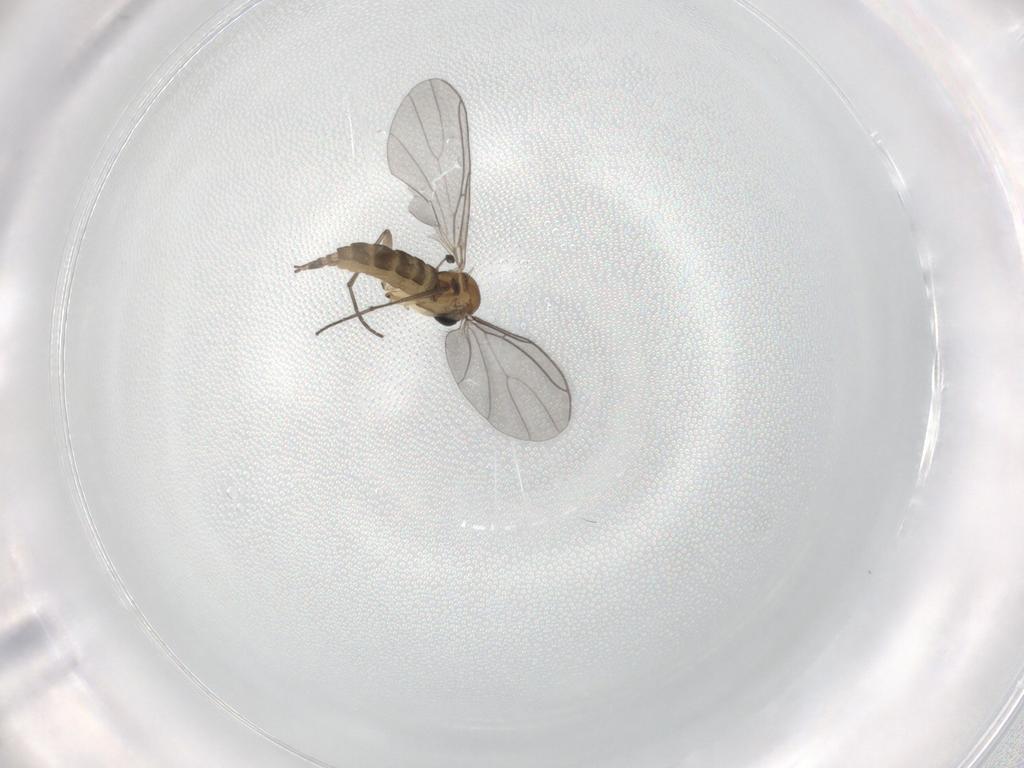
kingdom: Animalia
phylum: Arthropoda
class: Insecta
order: Diptera
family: Sciaridae
